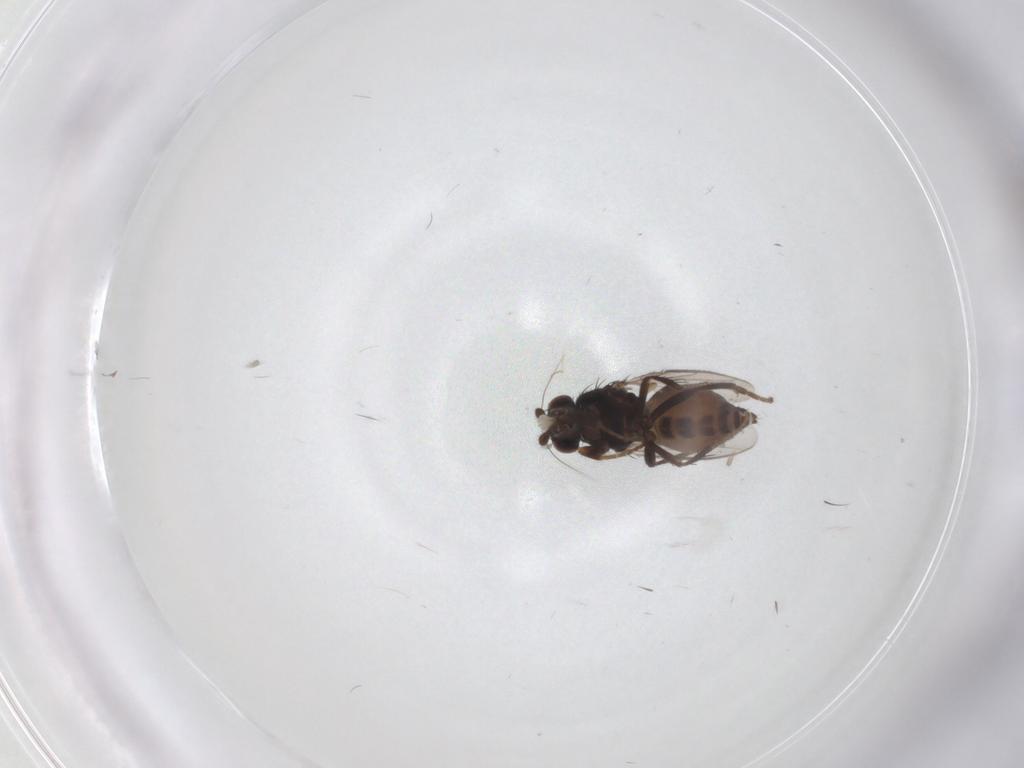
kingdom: Animalia
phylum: Arthropoda
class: Insecta
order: Diptera
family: Sphaeroceridae
